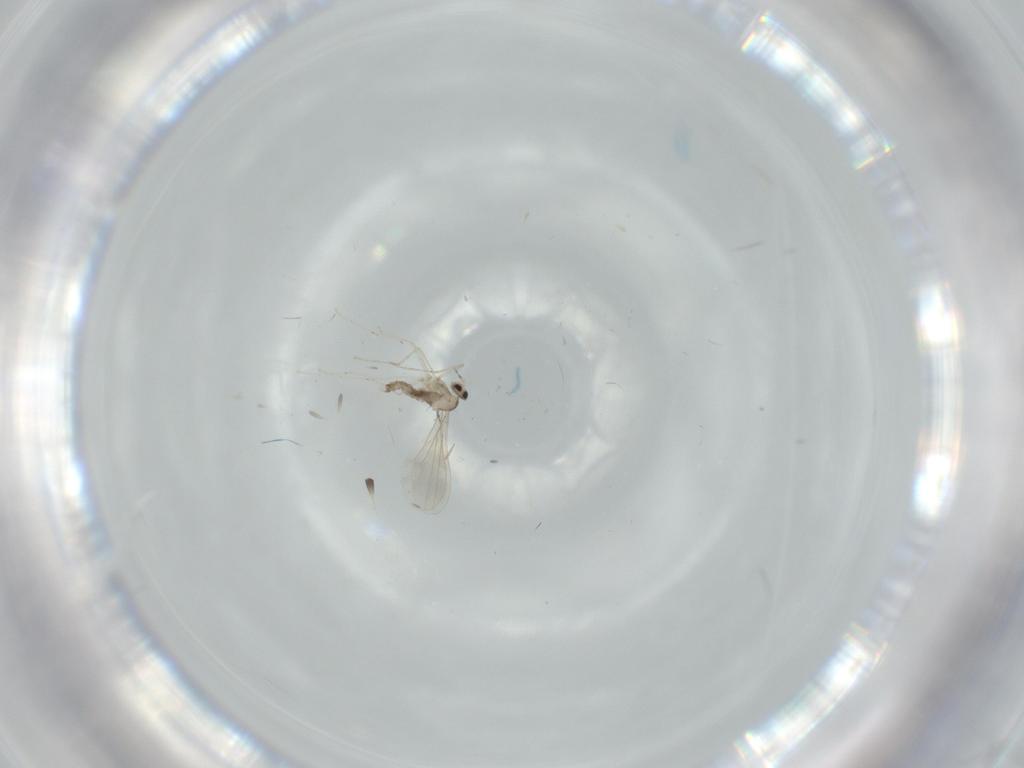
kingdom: Animalia
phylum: Arthropoda
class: Insecta
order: Diptera
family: Cecidomyiidae
